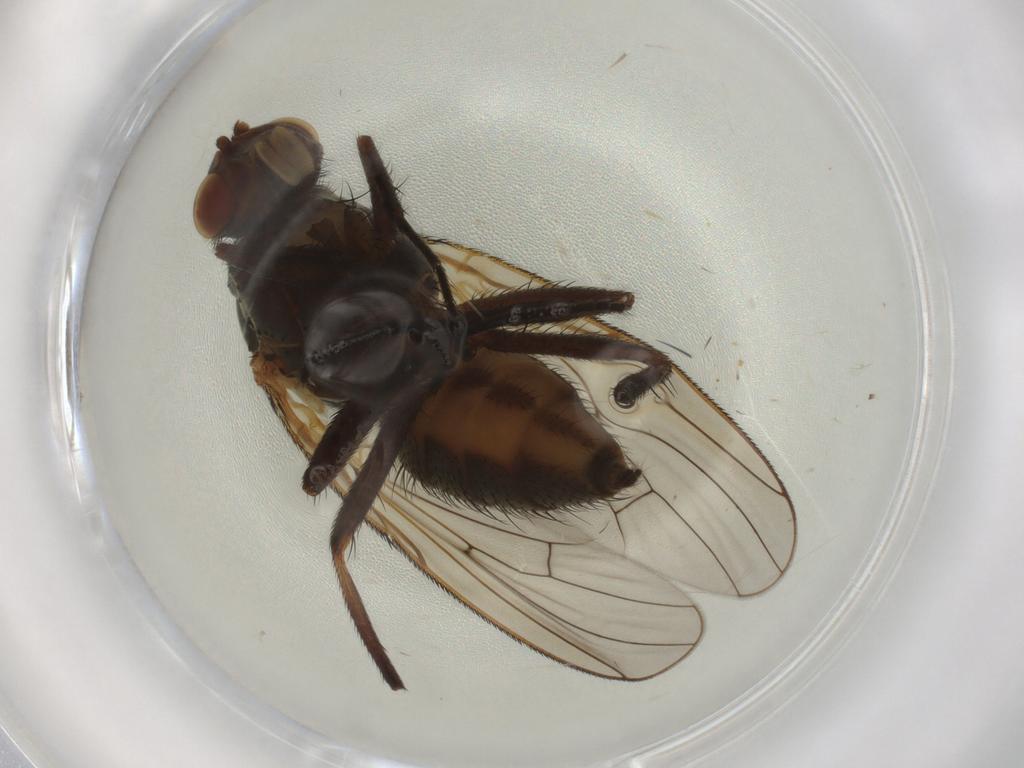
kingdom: Animalia
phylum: Arthropoda
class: Insecta
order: Diptera
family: Anthomyiidae
